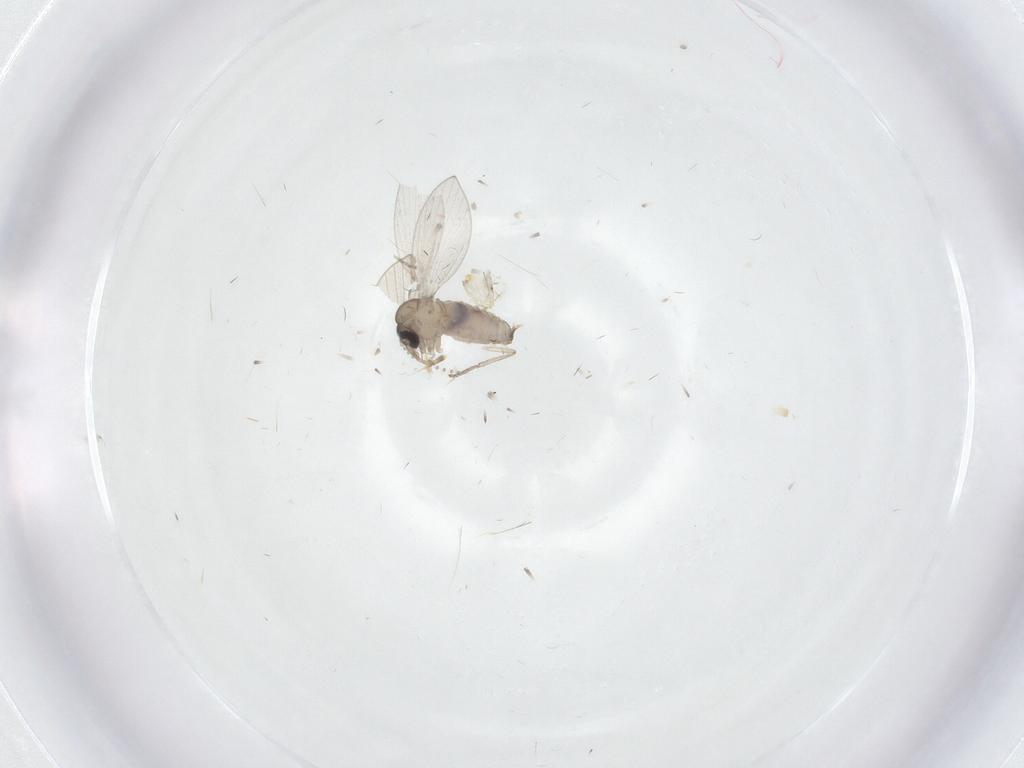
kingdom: Animalia
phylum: Arthropoda
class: Insecta
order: Diptera
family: Psychodidae
